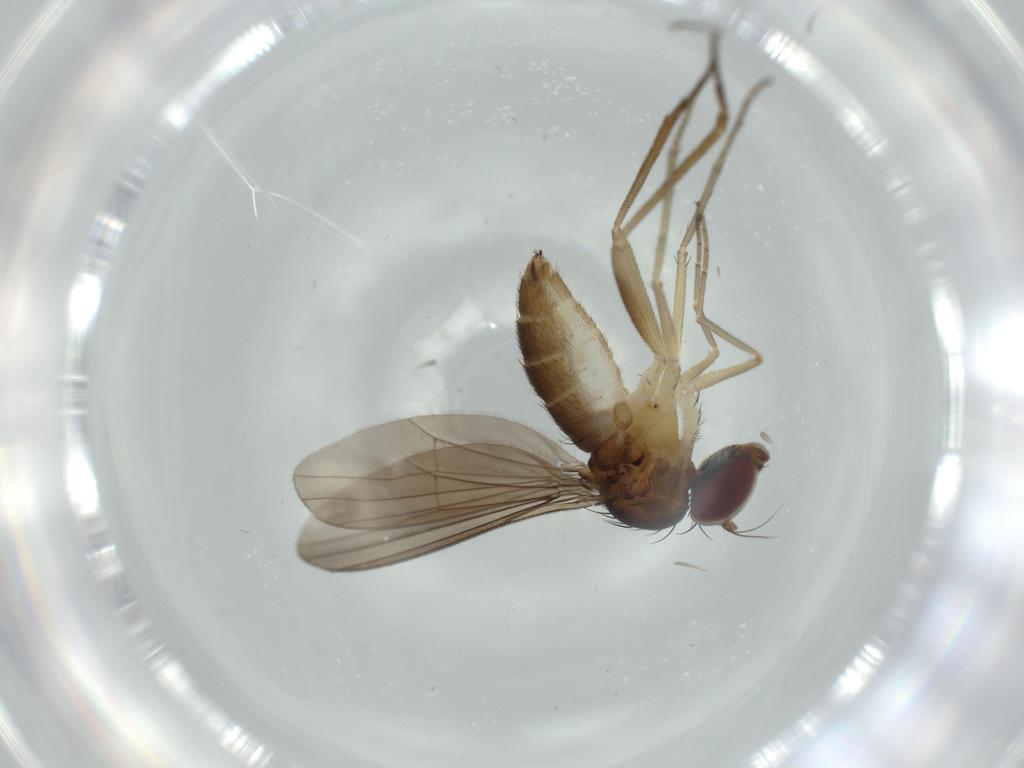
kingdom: Animalia
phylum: Arthropoda
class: Insecta
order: Diptera
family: Dolichopodidae
